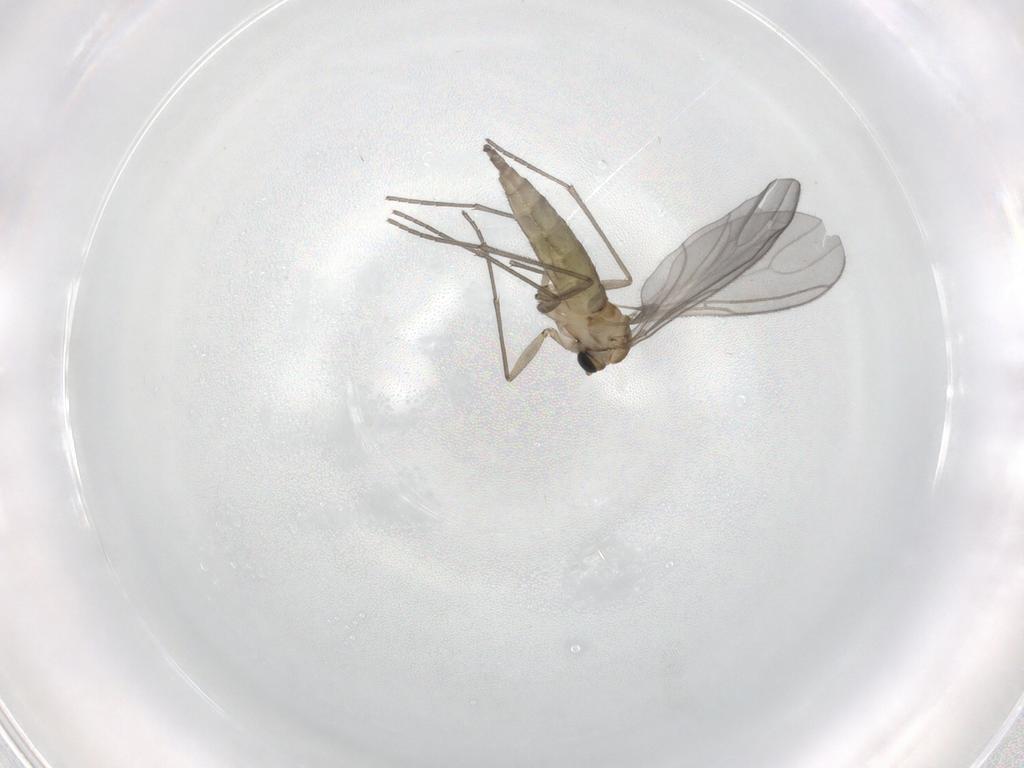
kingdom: Animalia
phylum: Arthropoda
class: Insecta
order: Diptera
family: Sciaridae
